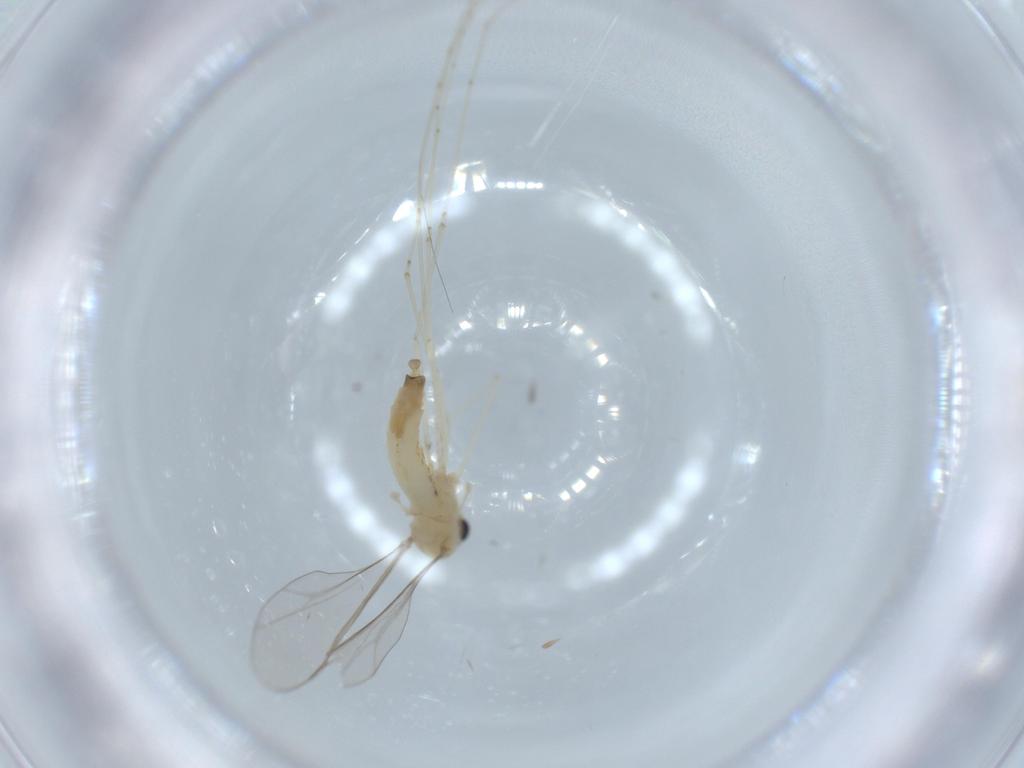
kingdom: Animalia
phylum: Arthropoda
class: Insecta
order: Diptera
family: Cecidomyiidae
